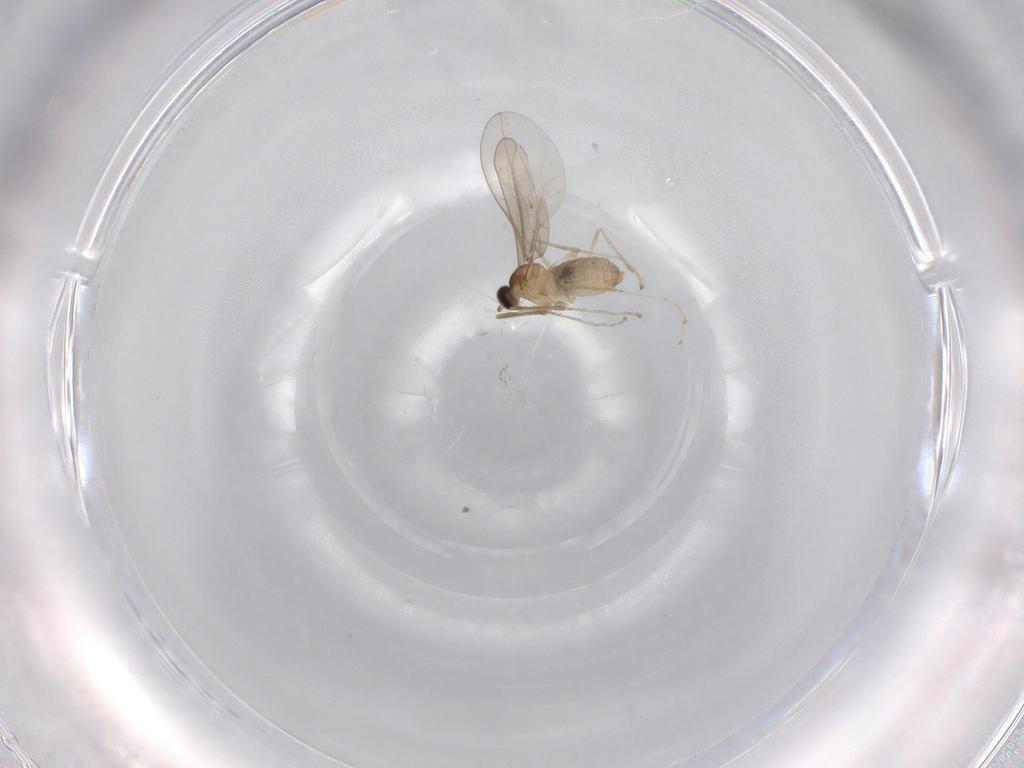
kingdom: Animalia
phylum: Arthropoda
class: Insecta
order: Diptera
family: Cecidomyiidae
